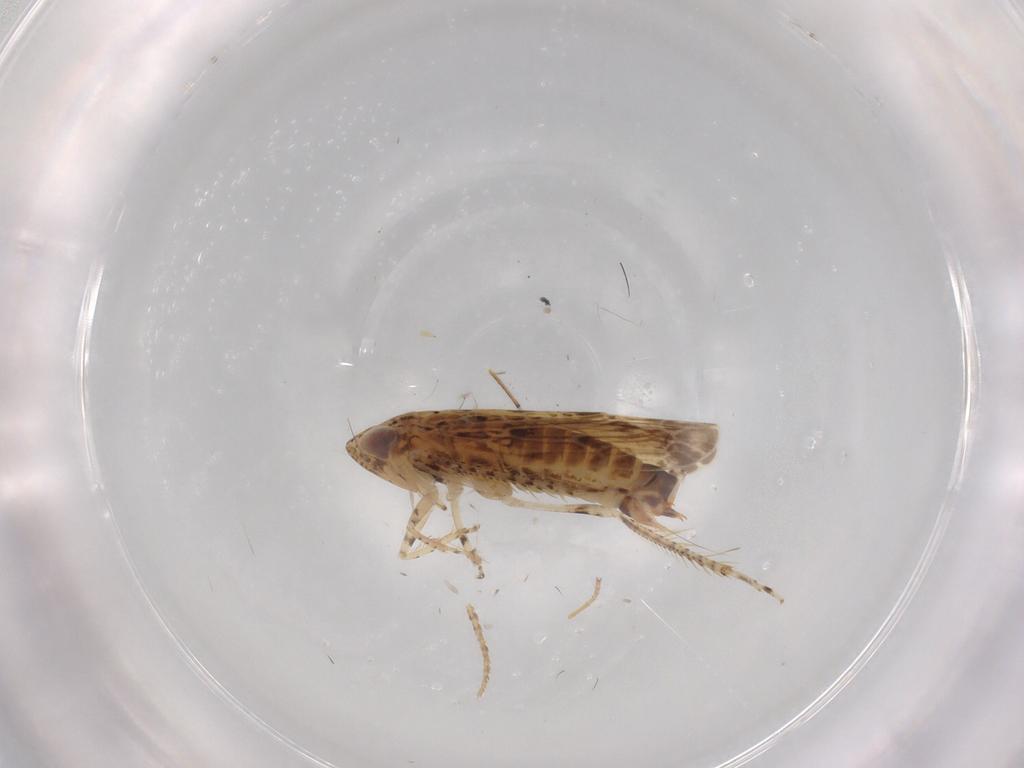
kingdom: Animalia
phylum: Arthropoda
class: Insecta
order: Hemiptera
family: Cicadellidae
